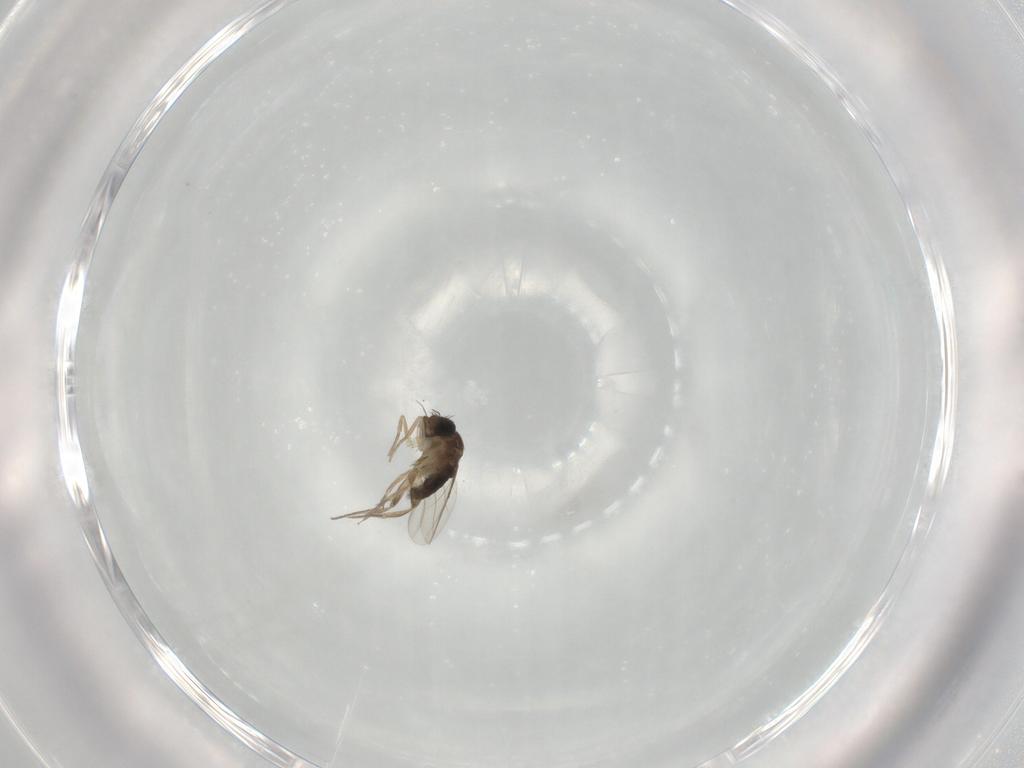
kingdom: Animalia
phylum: Arthropoda
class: Insecta
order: Diptera
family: Phoridae
